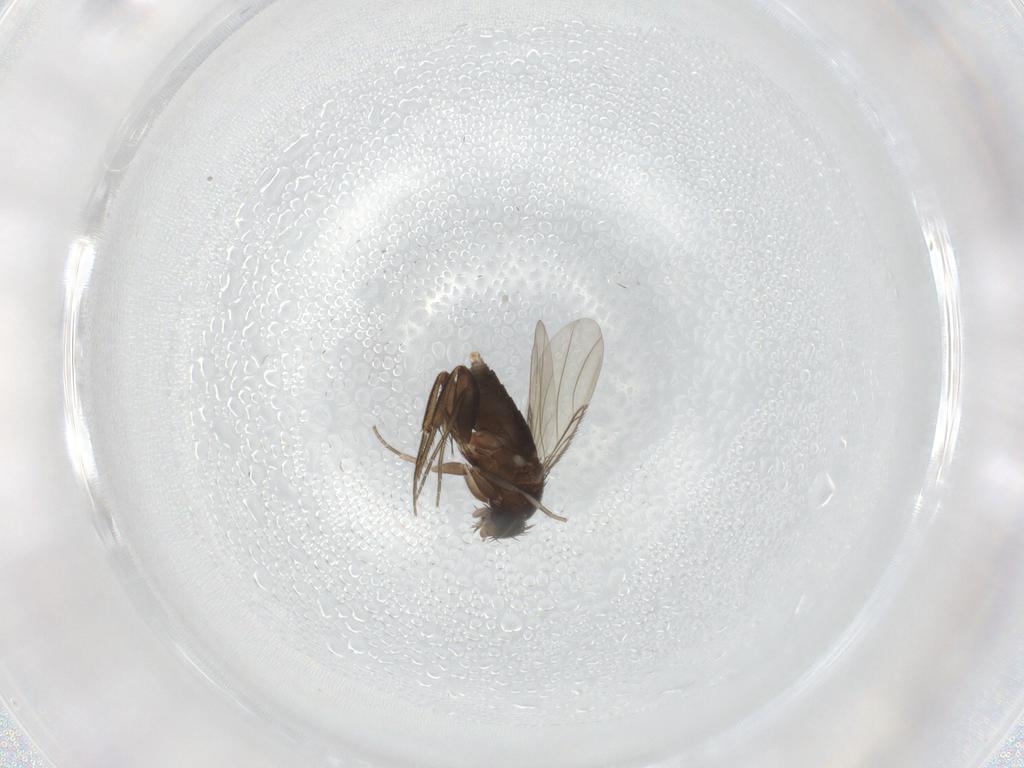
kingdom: Animalia
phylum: Arthropoda
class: Insecta
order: Diptera
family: Phoridae
